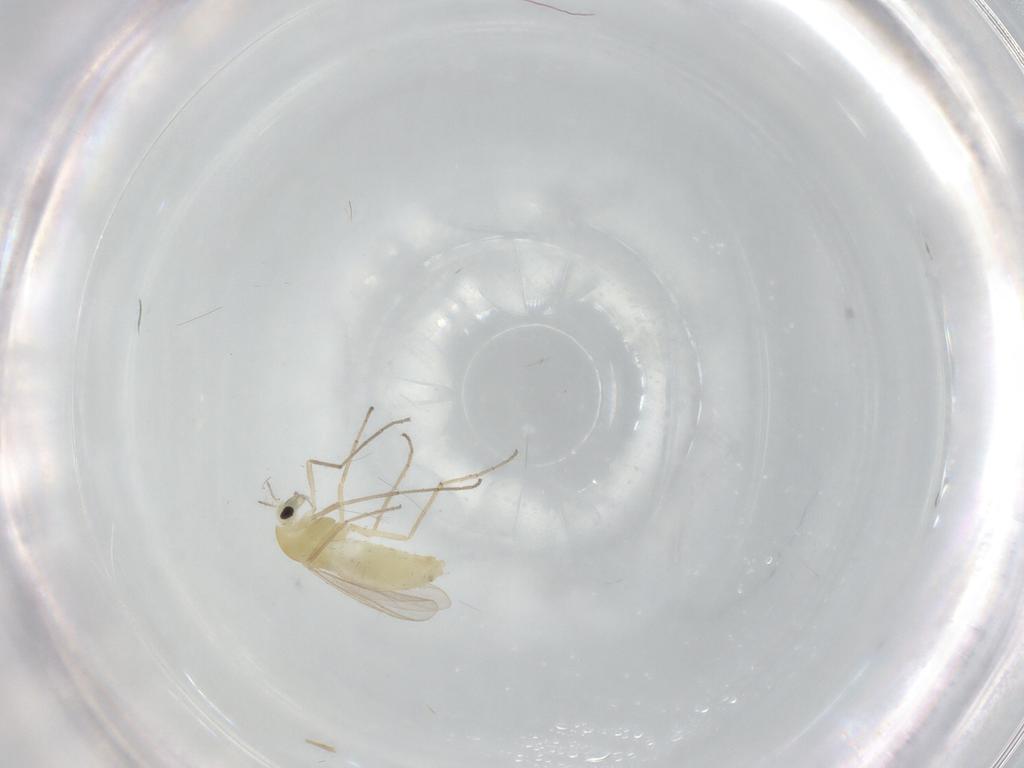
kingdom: Animalia
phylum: Arthropoda
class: Insecta
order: Diptera
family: Chironomidae
